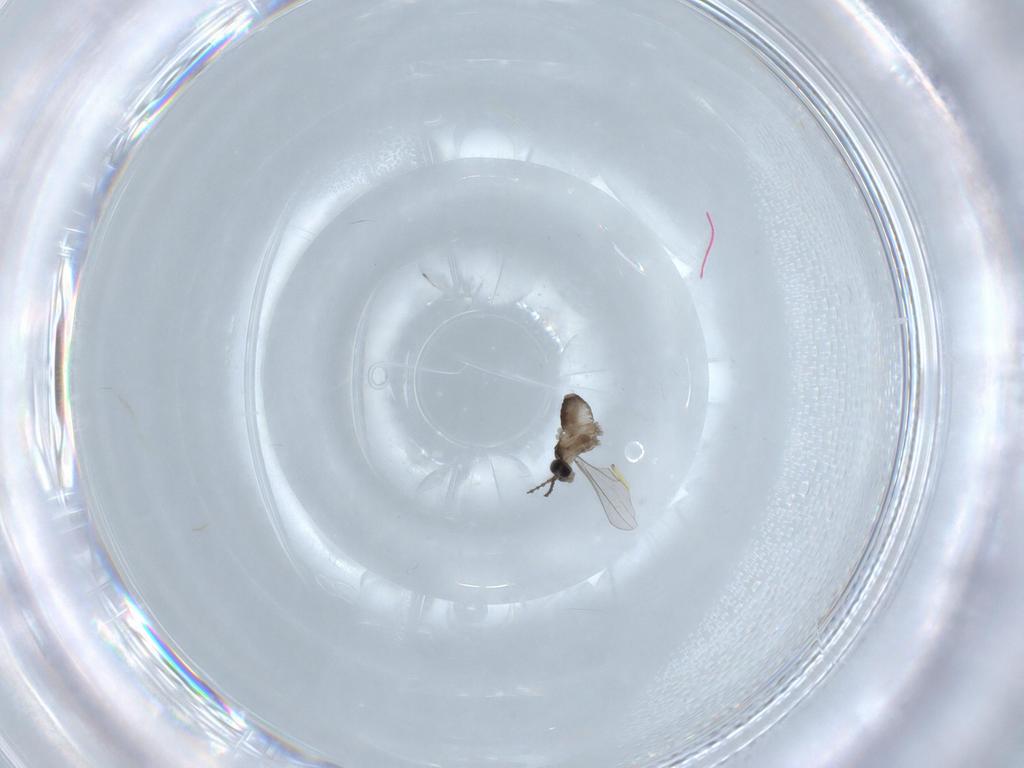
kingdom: Animalia
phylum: Arthropoda
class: Insecta
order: Diptera
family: Cecidomyiidae
